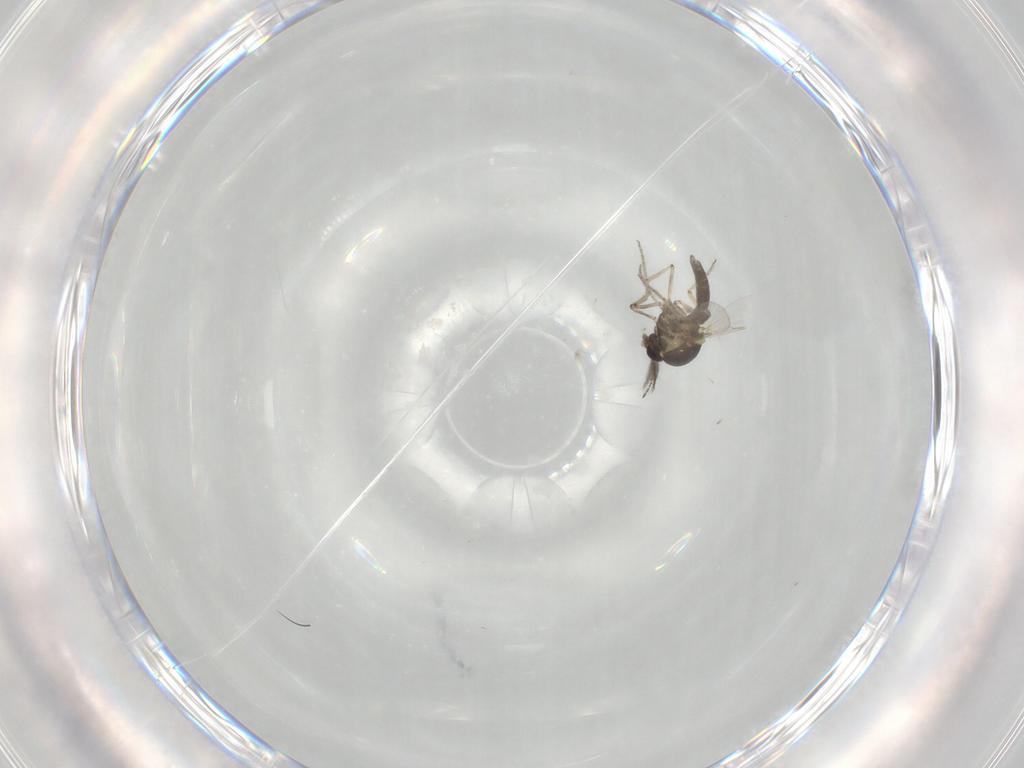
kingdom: Animalia
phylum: Arthropoda
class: Insecta
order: Diptera
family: Ceratopogonidae
